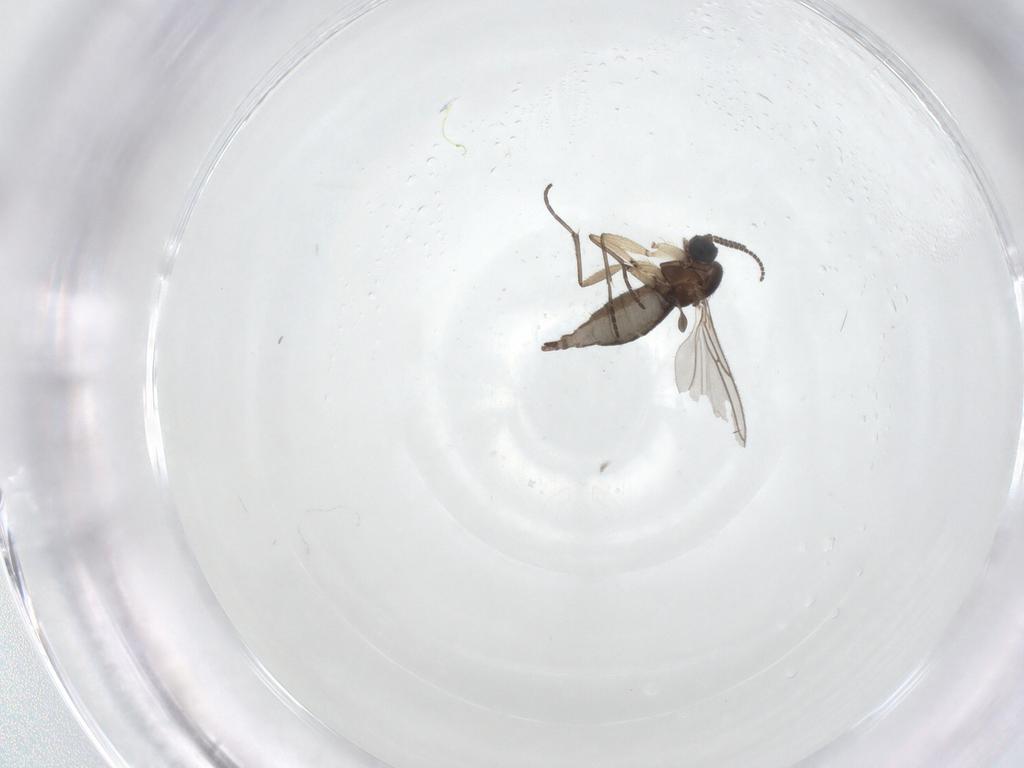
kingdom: Animalia
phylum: Arthropoda
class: Insecta
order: Diptera
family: Sciaridae
